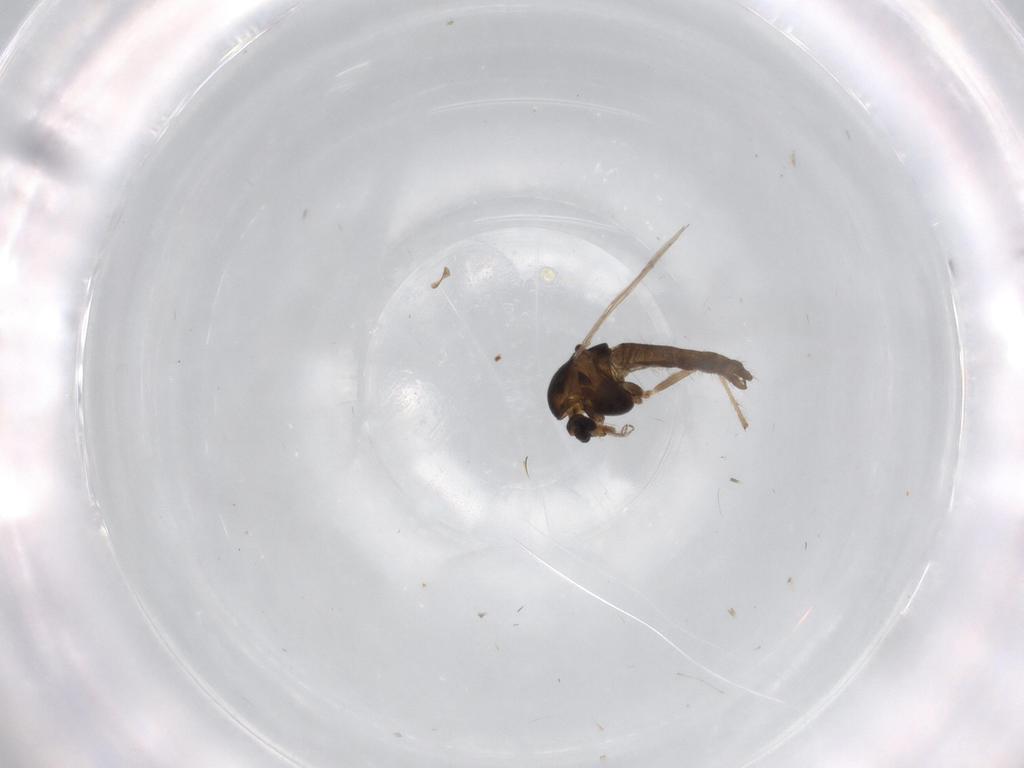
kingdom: Animalia
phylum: Arthropoda
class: Insecta
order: Diptera
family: Chironomidae
